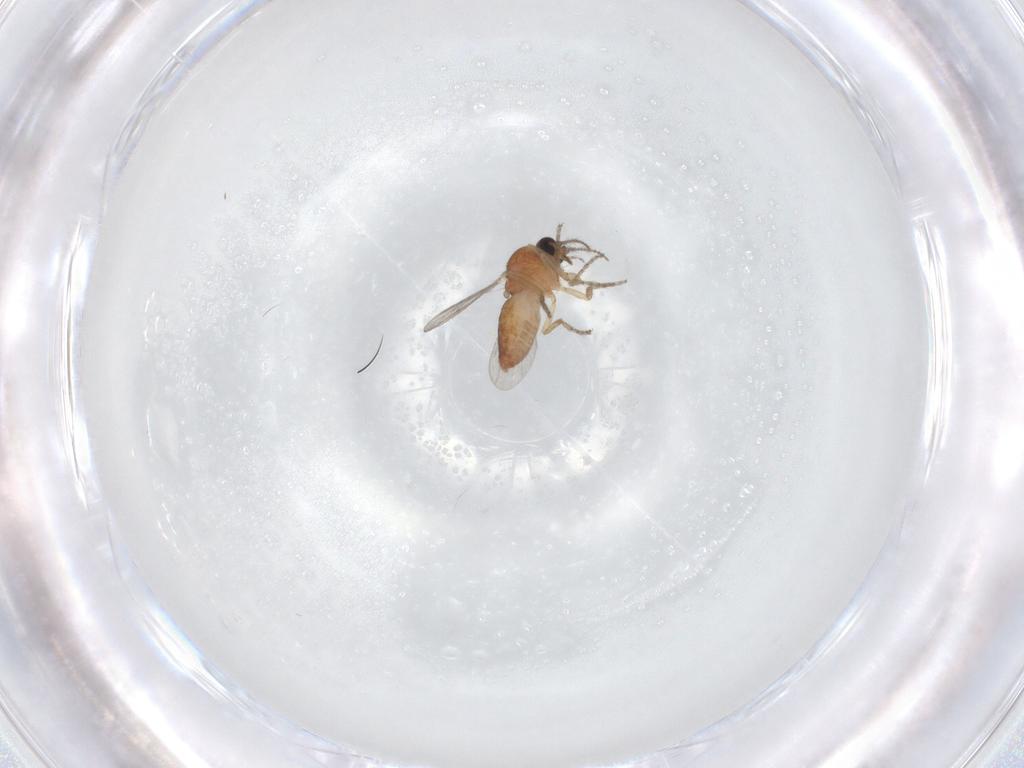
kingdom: Animalia
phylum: Arthropoda
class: Insecta
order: Diptera
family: Ceratopogonidae
